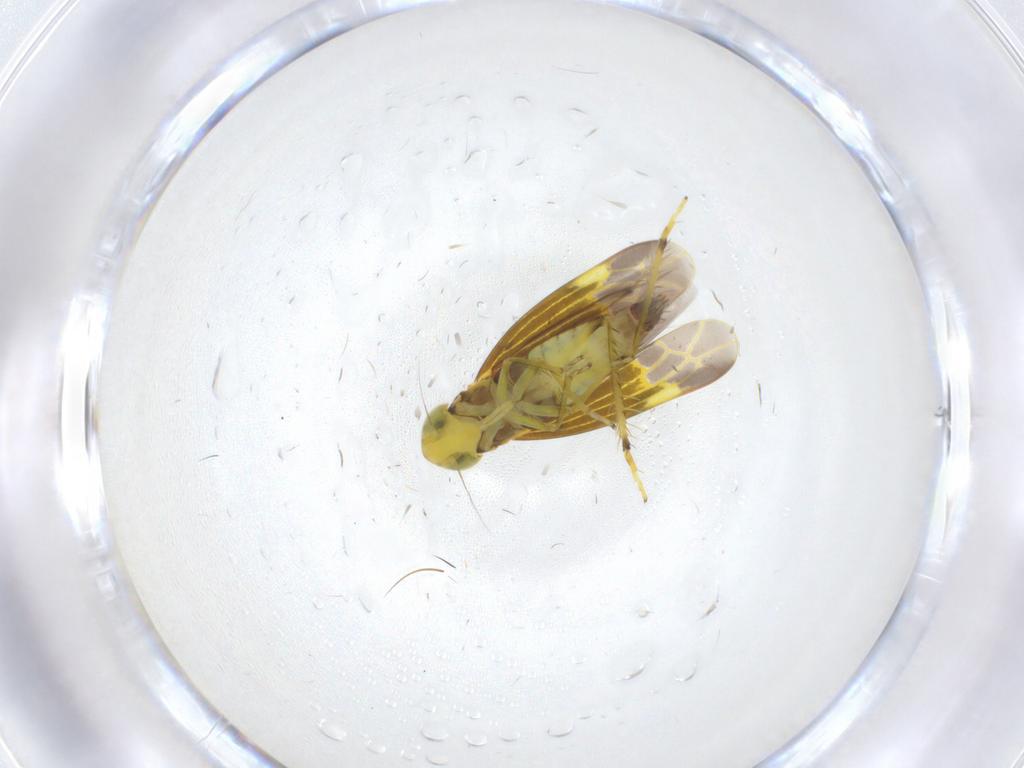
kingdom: Animalia
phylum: Arthropoda
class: Insecta
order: Hemiptera
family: Cicadellidae
